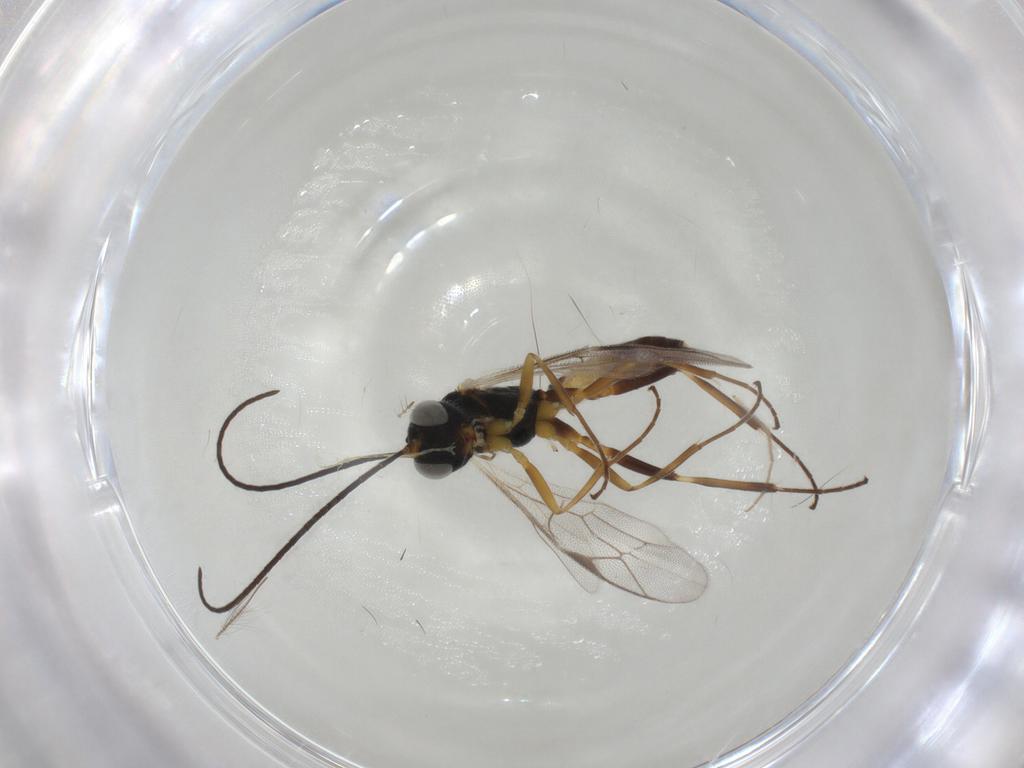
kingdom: Animalia
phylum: Arthropoda
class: Insecta
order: Hymenoptera
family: Ichneumonidae
